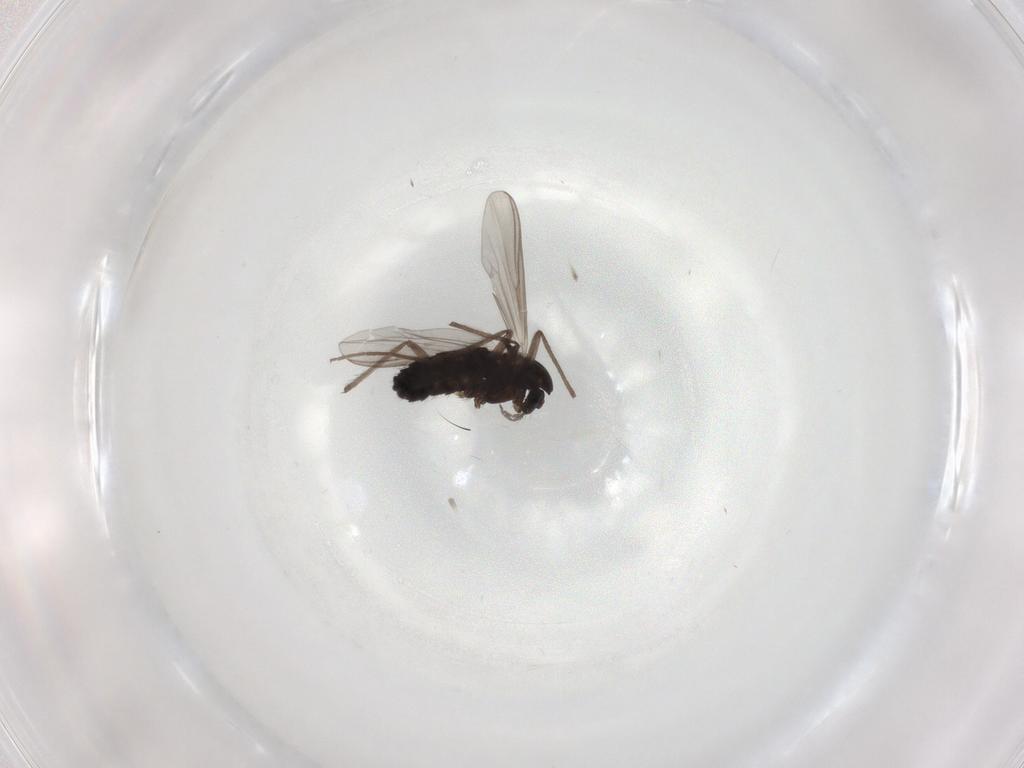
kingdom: Animalia
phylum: Arthropoda
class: Insecta
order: Diptera
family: Chironomidae
